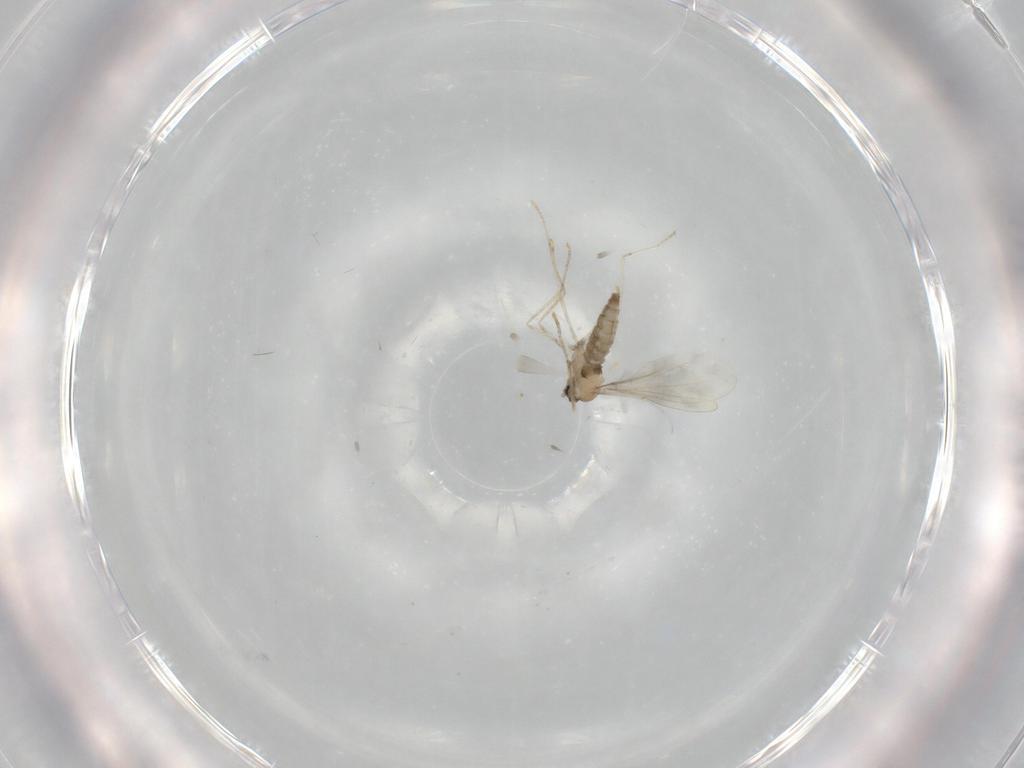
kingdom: Animalia
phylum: Arthropoda
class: Insecta
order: Diptera
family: Cecidomyiidae
